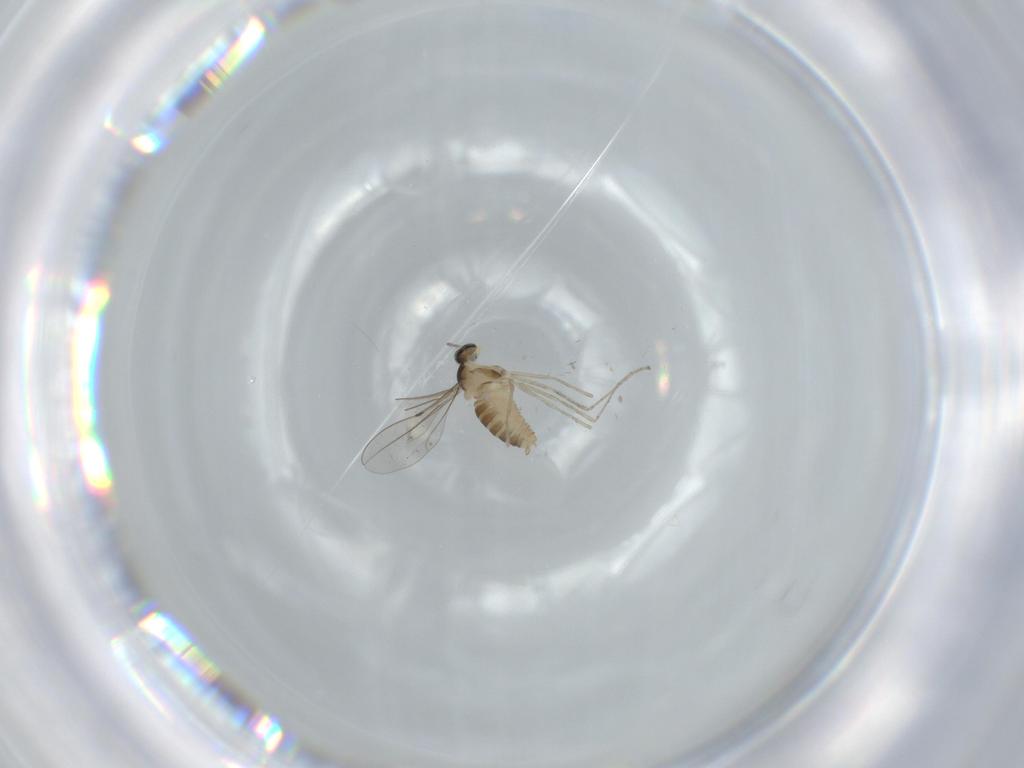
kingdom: Animalia
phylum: Arthropoda
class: Insecta
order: Diptera
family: Cecidomyiidae
